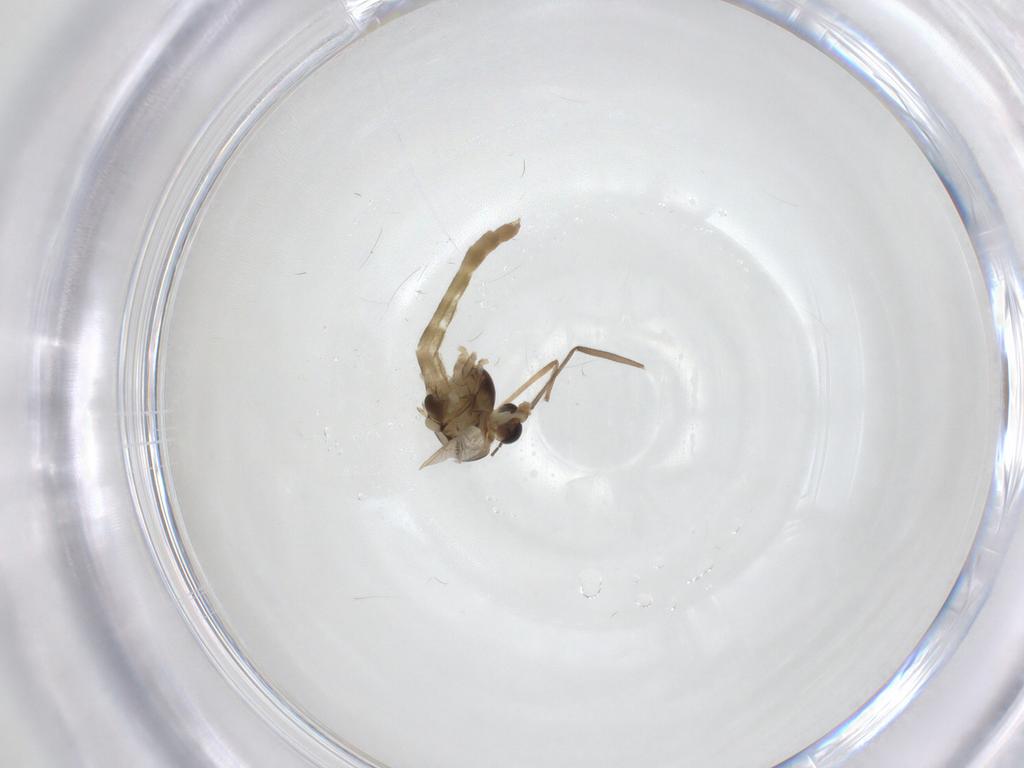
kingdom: Animalia
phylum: Arthropoda
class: Insecta
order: Diptera
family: Chironomidae
